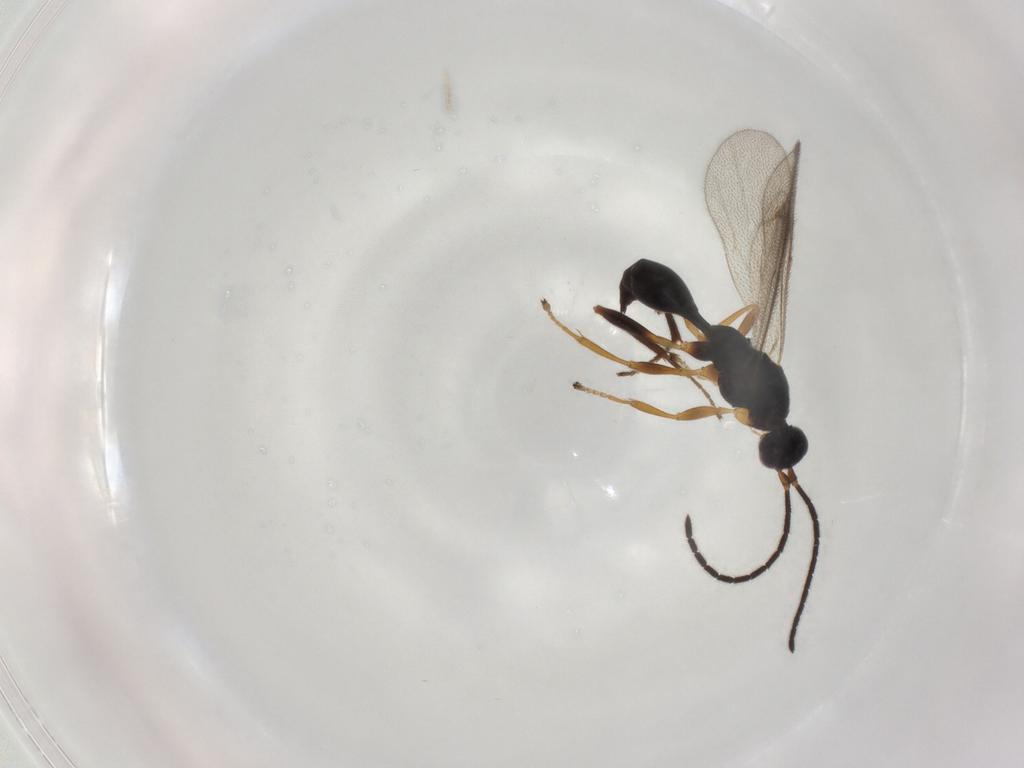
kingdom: Animalia
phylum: Arthropoda
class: Insecta
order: Hymenoptera
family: Proctotrupidae
